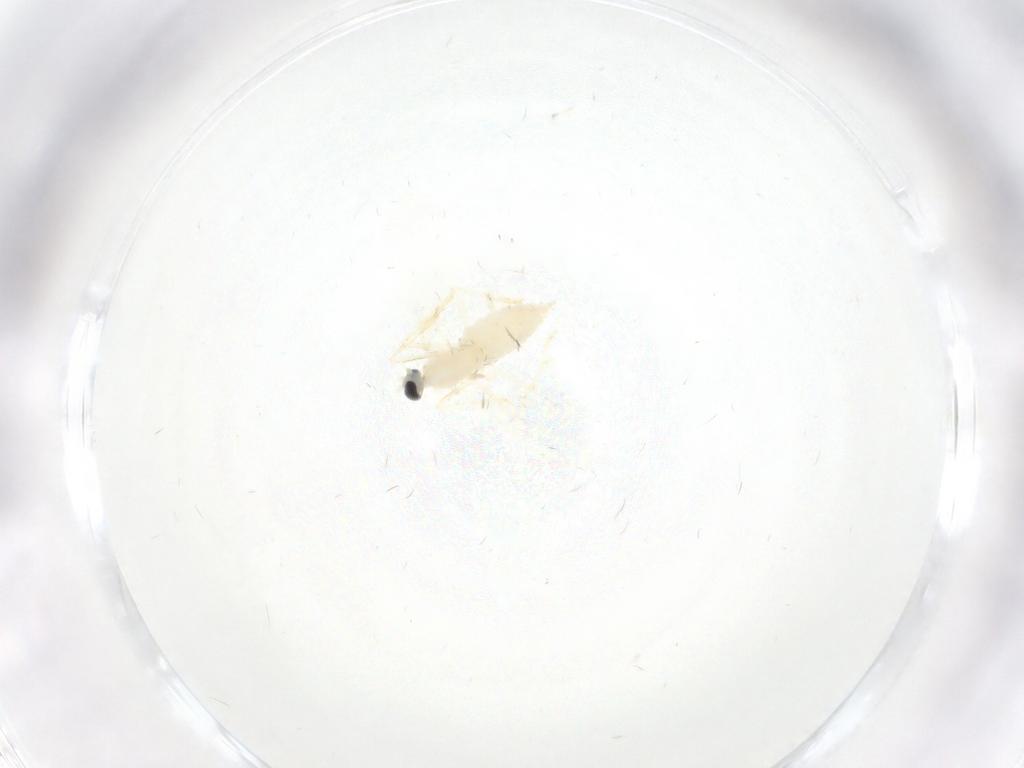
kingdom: Animalia
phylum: Arthropoda
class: Insecta
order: Diptera
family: Cecidomyiidae
